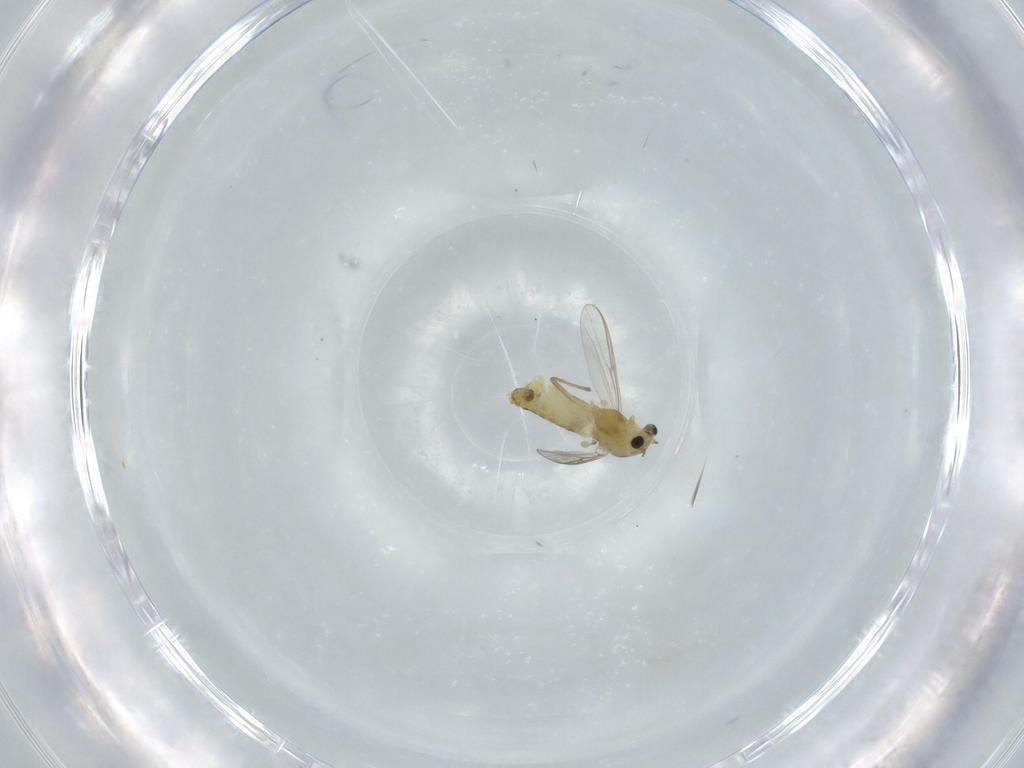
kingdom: Animalia
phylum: Arthropoda
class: Insecta
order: Diptera
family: Chironomidae
